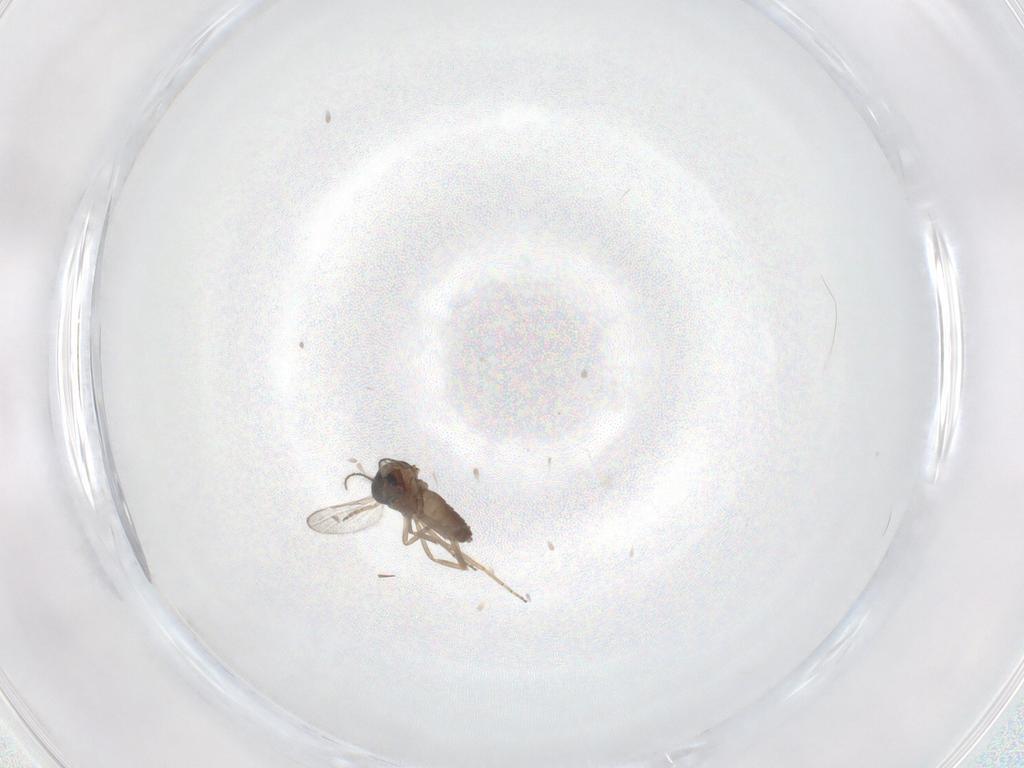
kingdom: Animalia
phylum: Arthropoda
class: Insecta
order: Diptera
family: Ceratopogonidae
